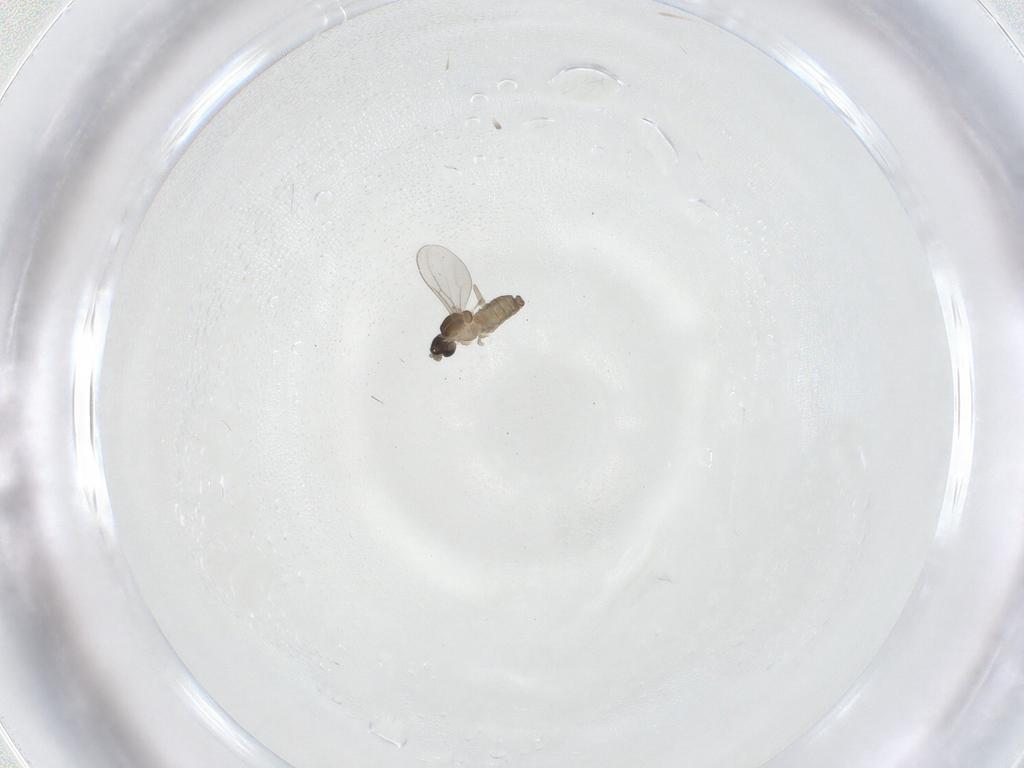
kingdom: Animalia
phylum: Arthropoda
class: Insecta
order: Diptera
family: Cecidomyiidae
